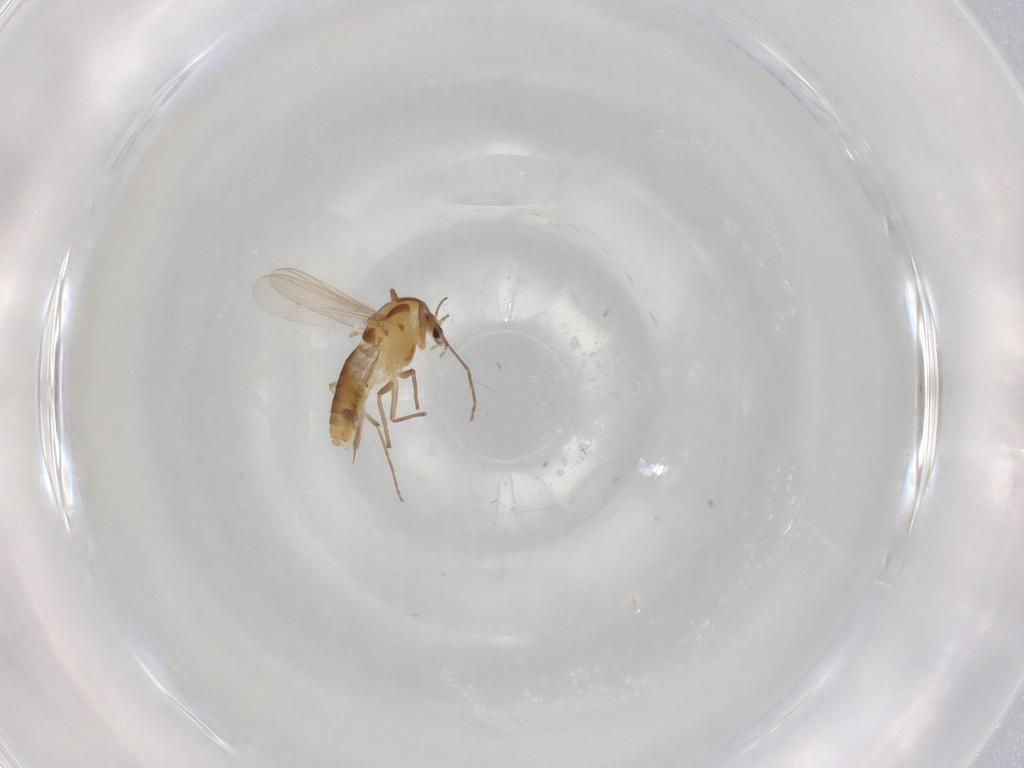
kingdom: Animalia
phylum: Arthropoda
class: Insecta
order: Diptera
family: Chironomidae
